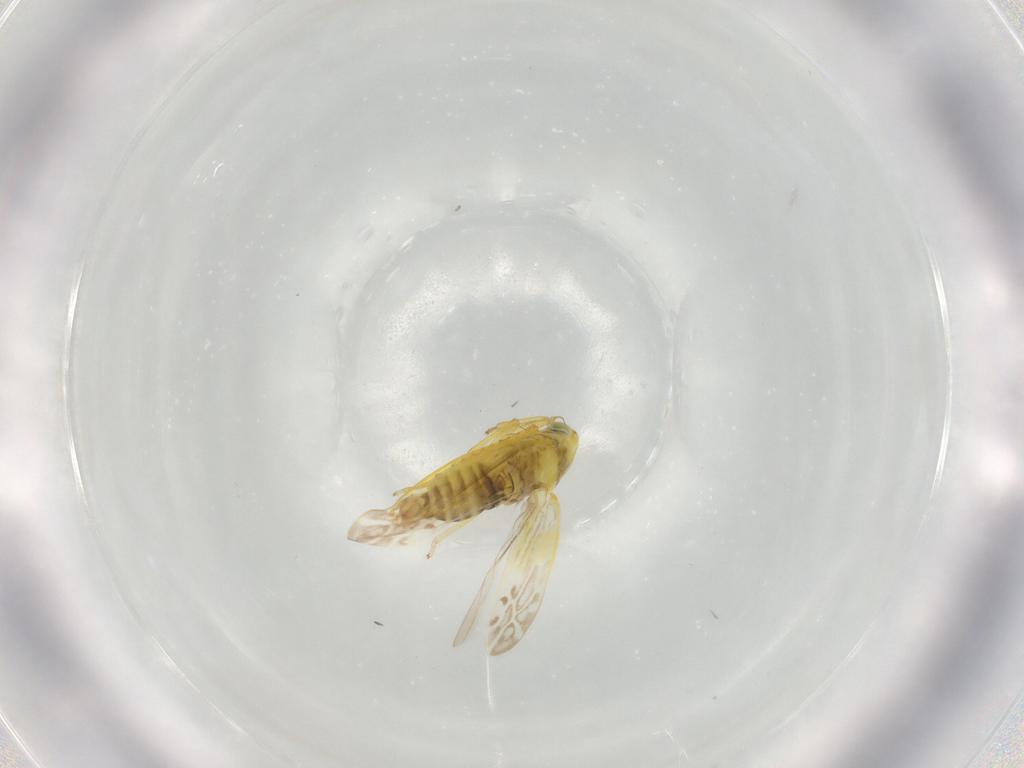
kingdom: Animalia
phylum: Arthropoda
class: Insecta
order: Hemiptera
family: Cicadellidae
